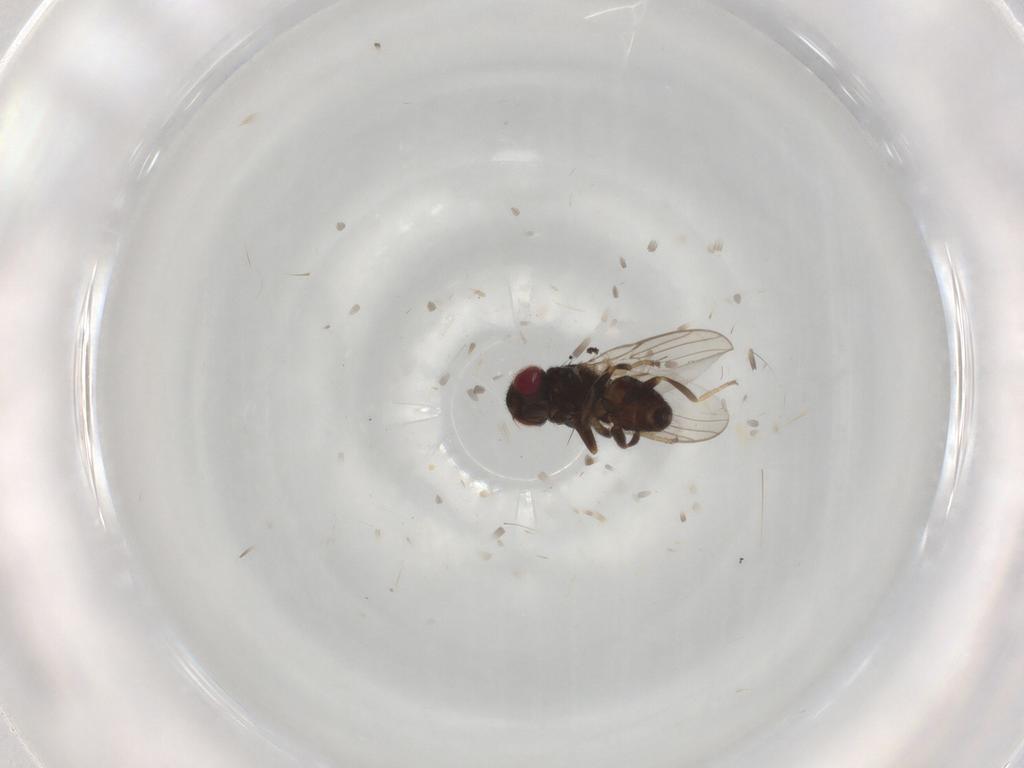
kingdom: Animalia
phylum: Arthropoda
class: Insecta
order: Diptera
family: Chloropidae
